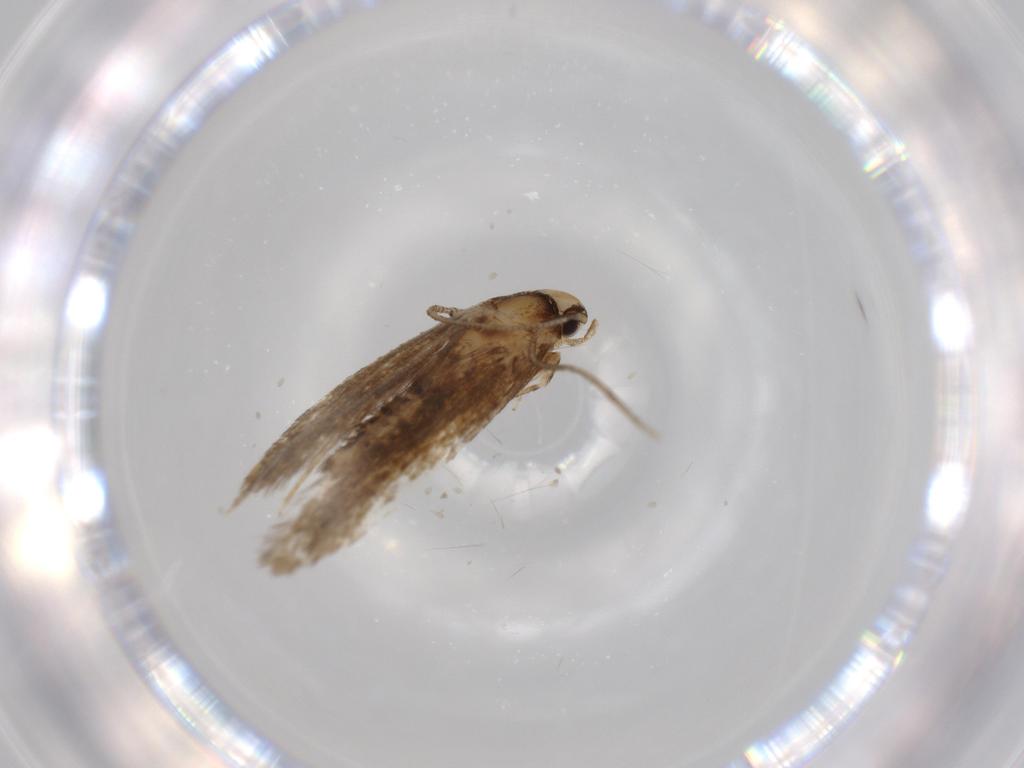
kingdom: Animalia
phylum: Arthropoda
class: Insecta
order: Lepidoptera
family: Tineidae
